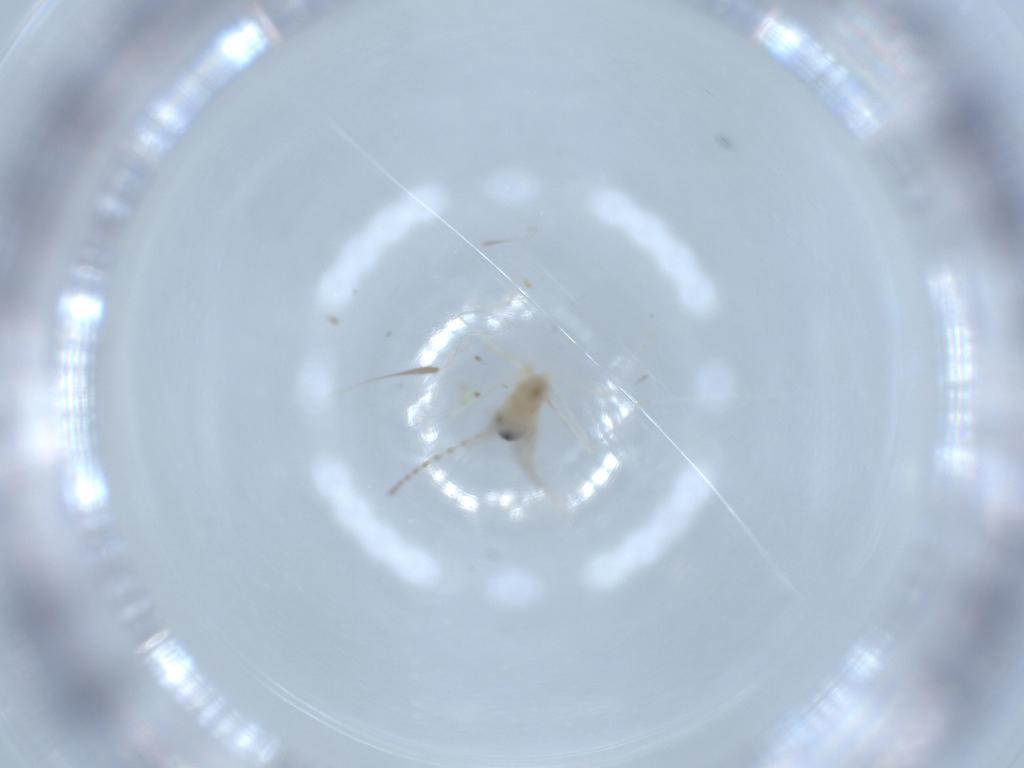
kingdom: Animalia
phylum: Arthropoda
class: Insecta
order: Diptera
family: Cecidomyiidae
